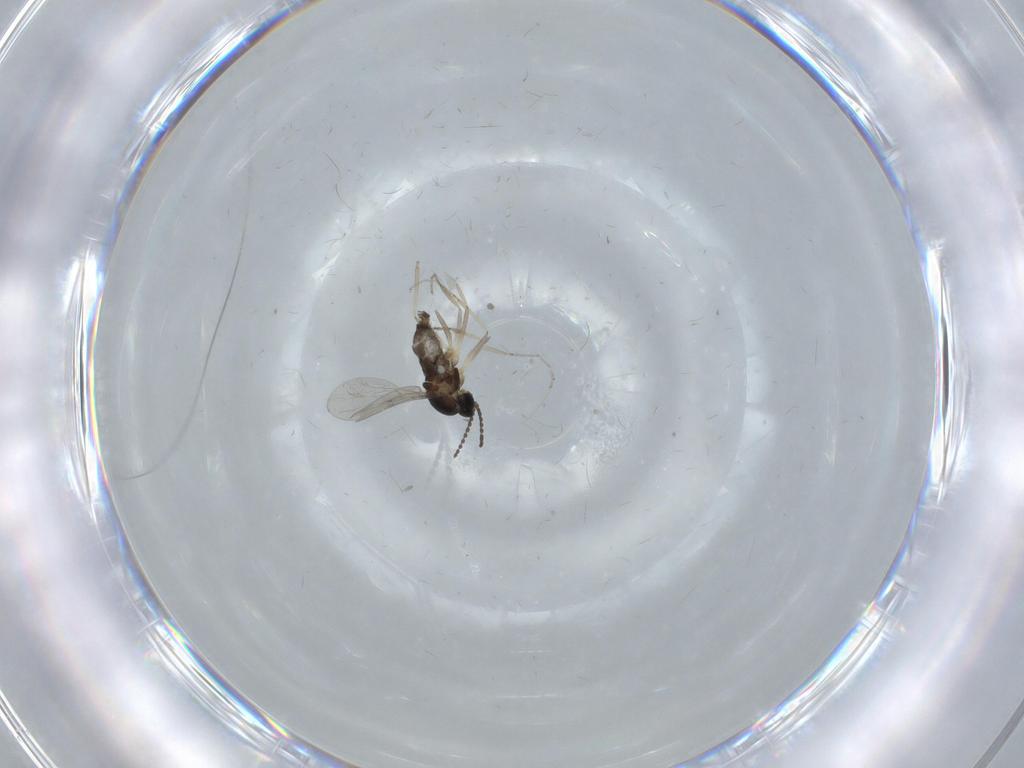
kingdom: Animalia
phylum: Arthropoda
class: Insecta
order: Diptera
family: Cecidomyiidae
